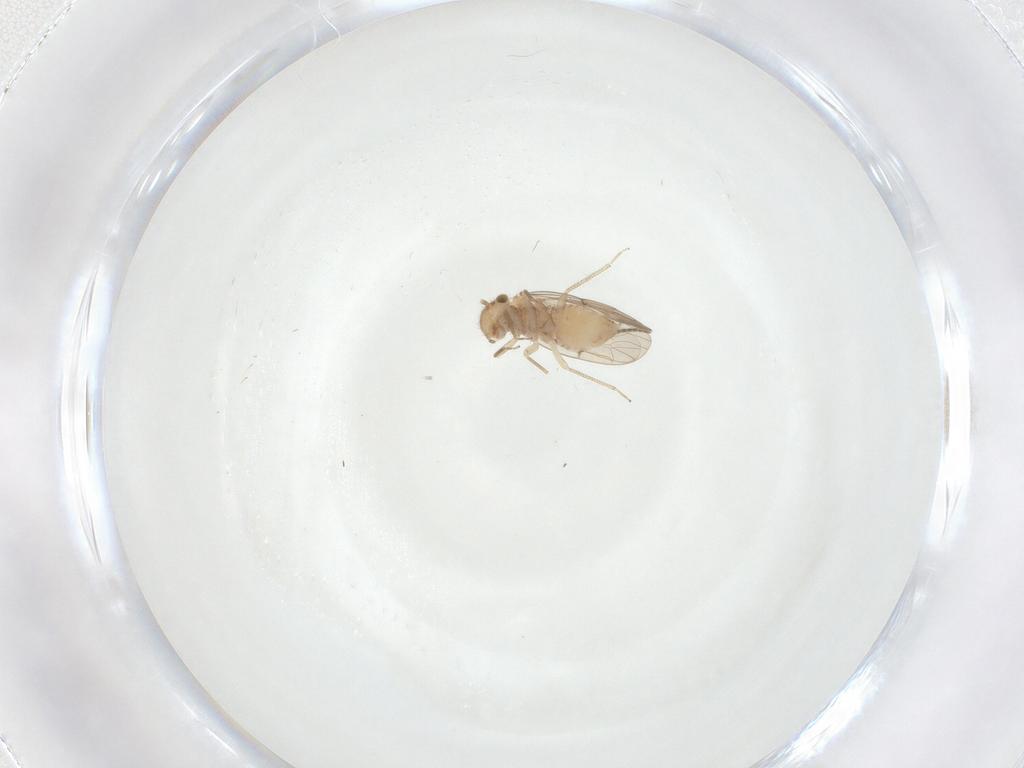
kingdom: Animalia
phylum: Arthropoda
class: Insecta
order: Psocodea
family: Ectopsocidae
